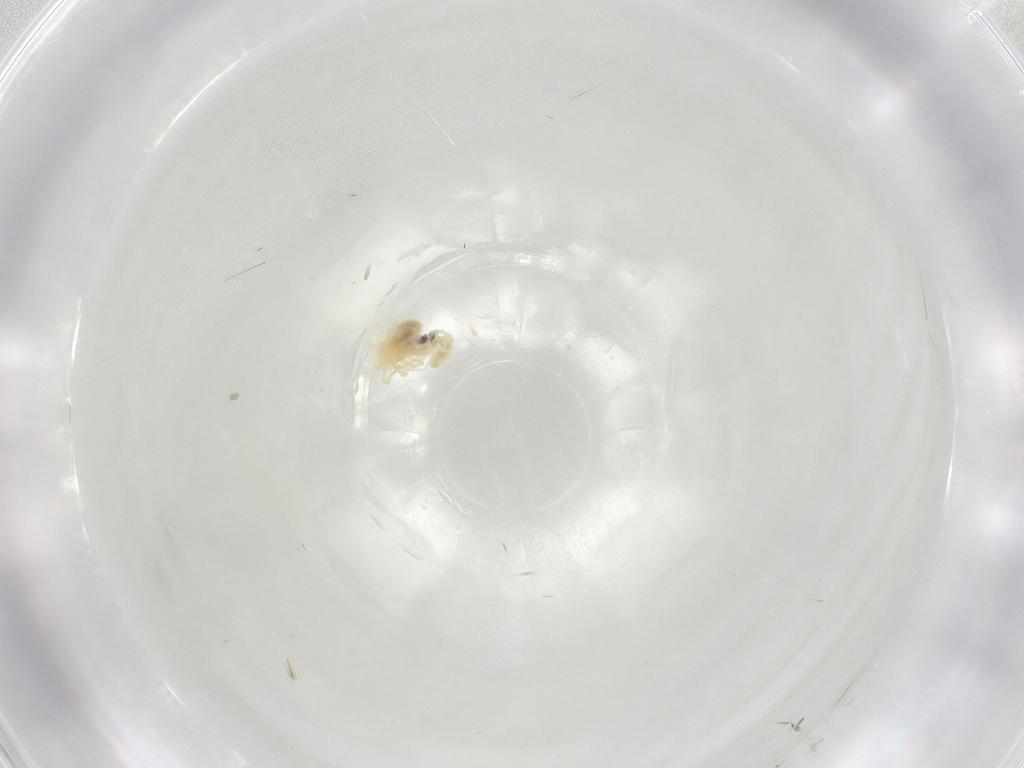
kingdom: Animalia
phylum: Arthropoda
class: Arachnida
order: Trombidiformes
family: Anystidae
